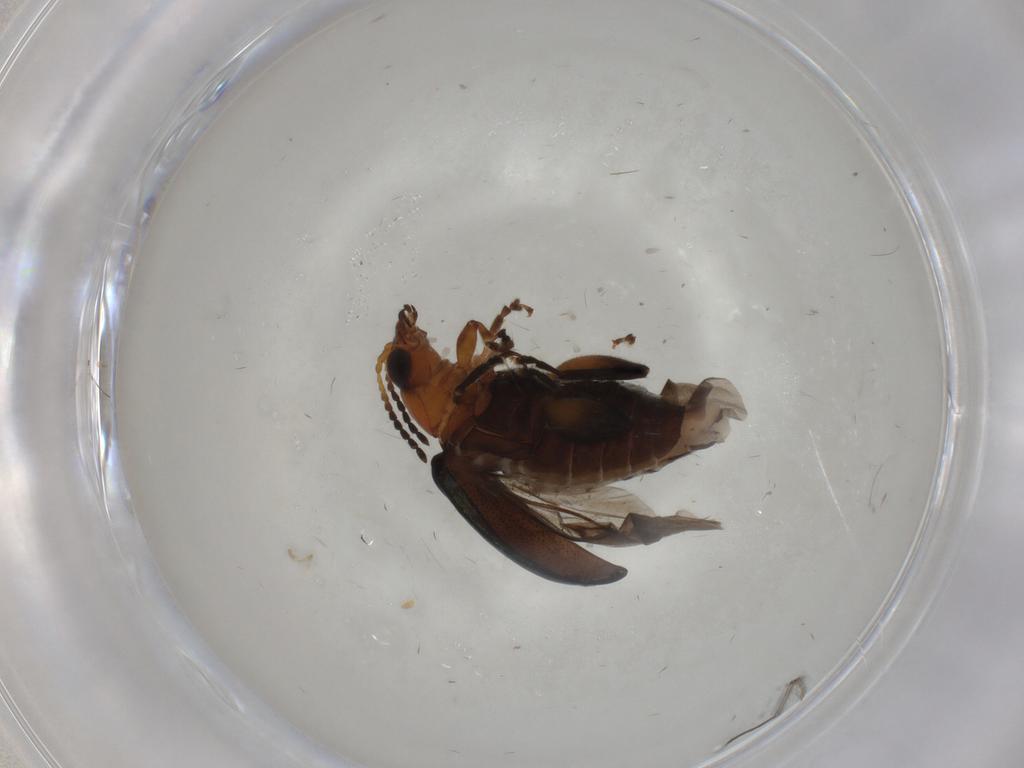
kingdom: Animalia
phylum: Arthropoda
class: Insecta
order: Coleoptera
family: Chrysomelidae
